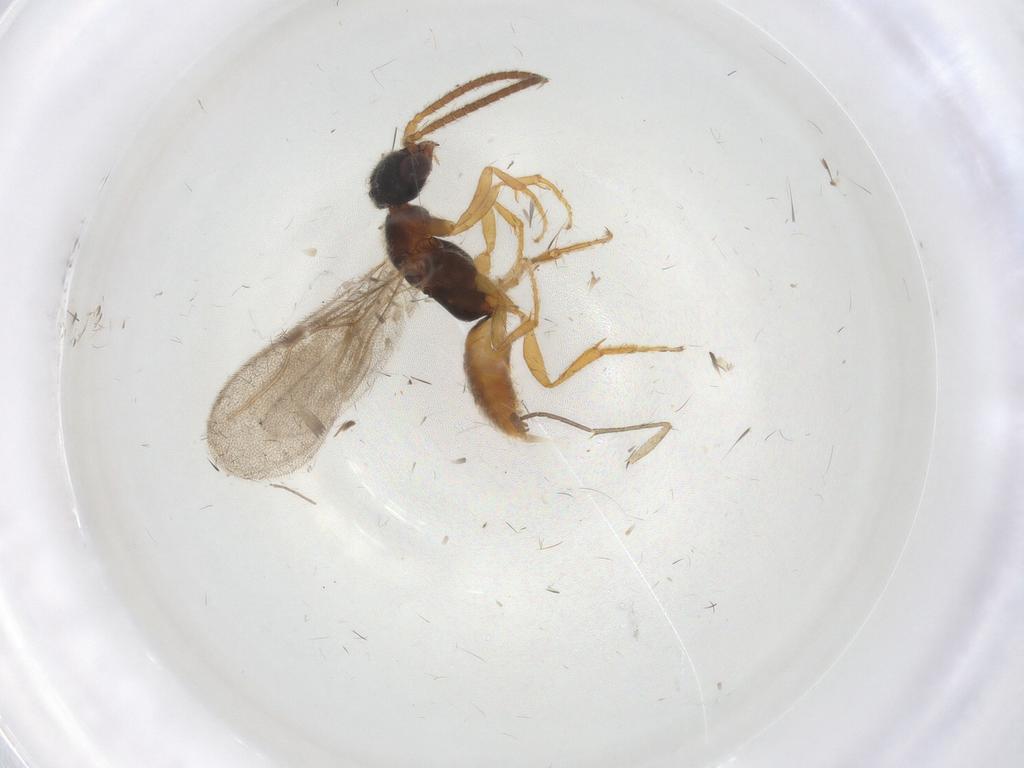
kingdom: Animalia
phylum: Arthropoda
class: Insecta
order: Hymenoptera
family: Bethylidae
